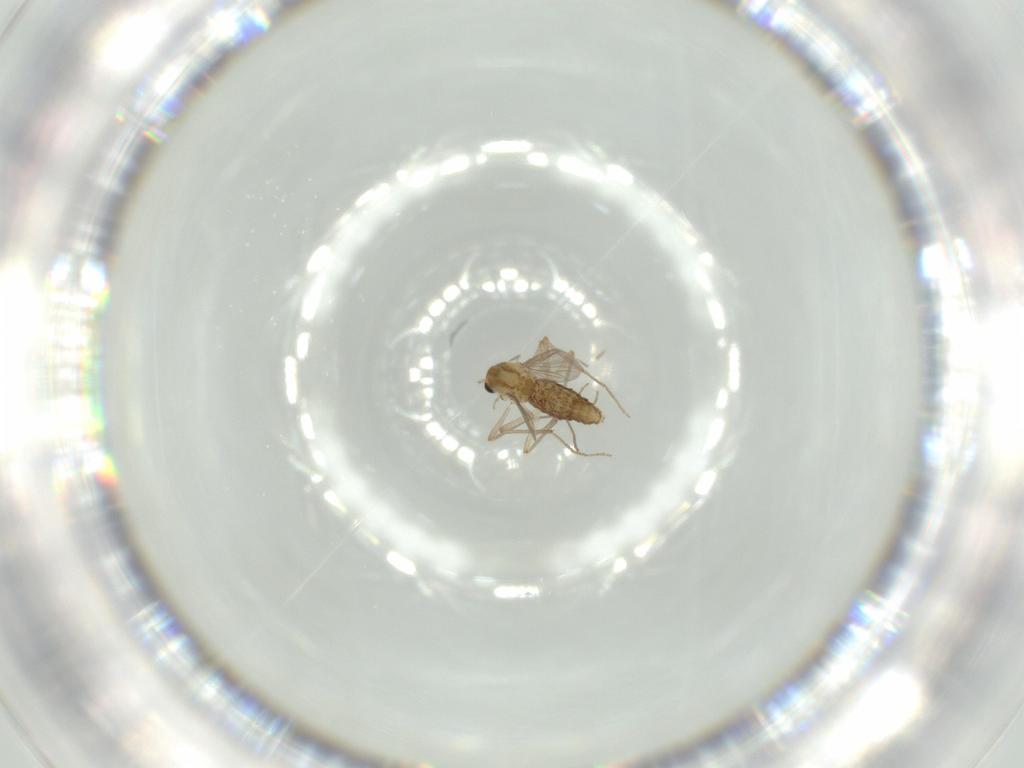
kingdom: Animalia
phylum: Arthropoda
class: Insecta
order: Diptera
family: Chironomidae
